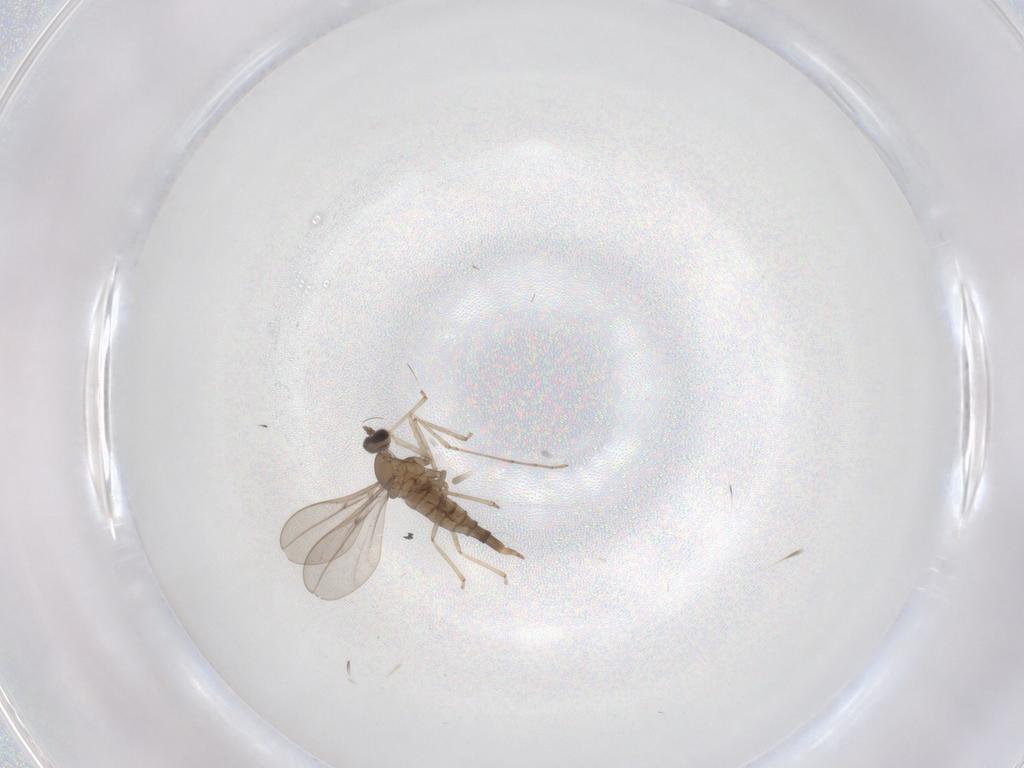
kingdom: Animalia
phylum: Arthropoda
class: Insecta
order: Diptera
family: Cecidomyiidae
